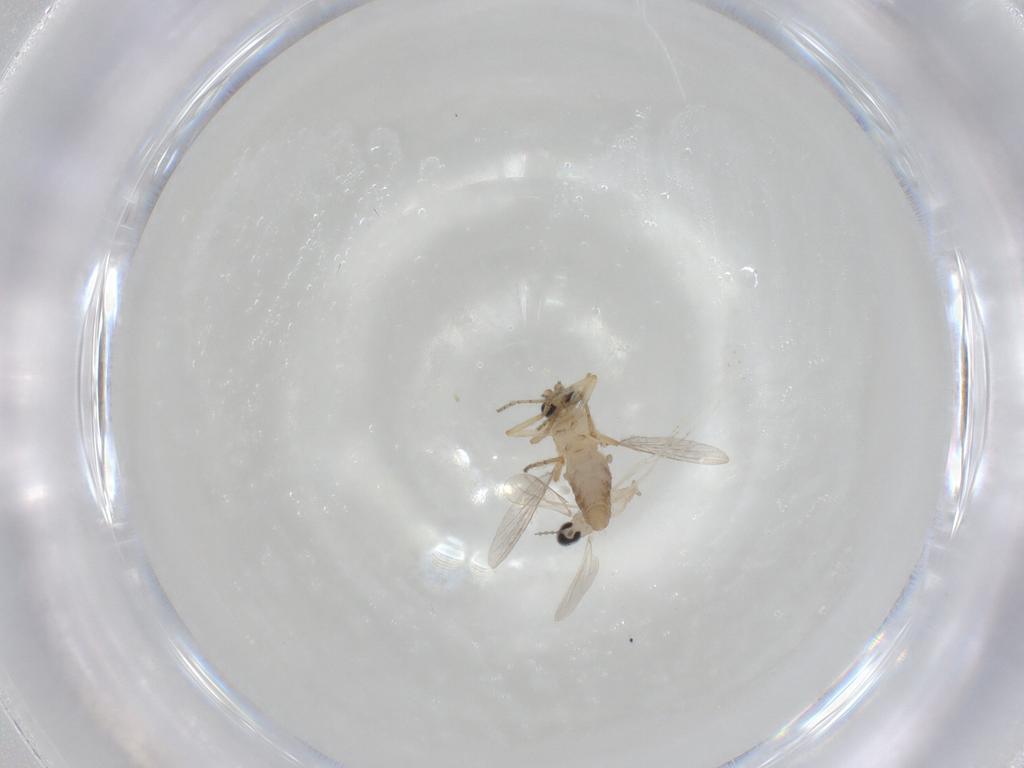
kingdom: Animalia
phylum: Arthropoda
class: Insecta
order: Diptera
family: Ceratopogonidae
